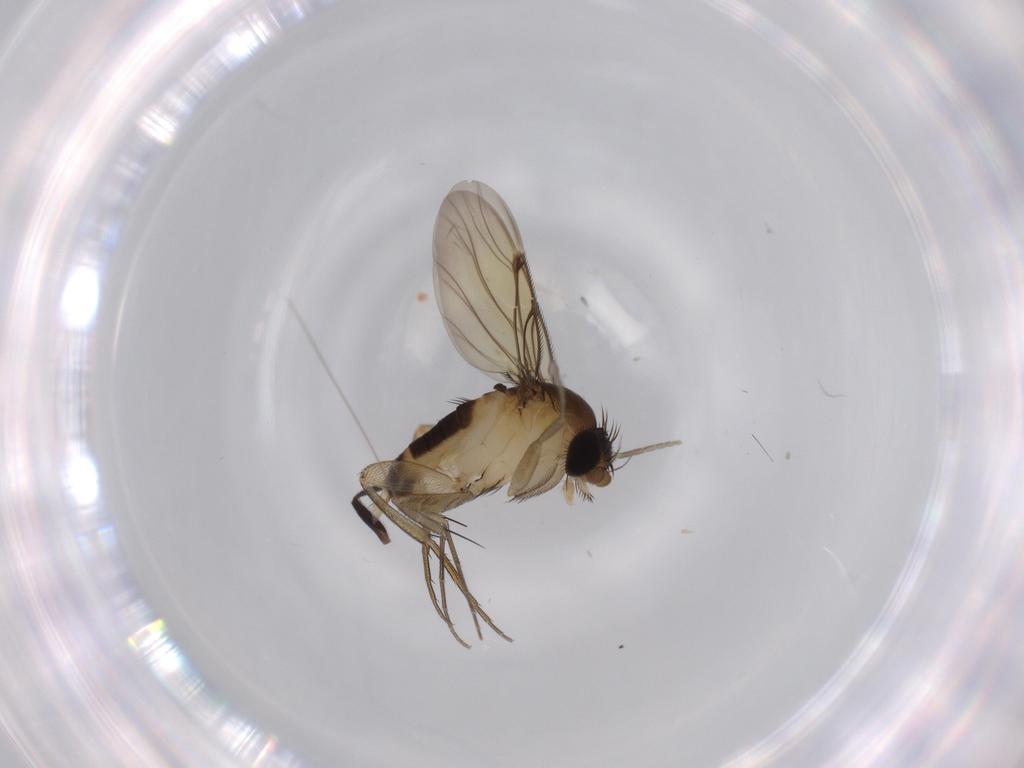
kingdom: Animalia
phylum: Arthropoda
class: Insecta
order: Diptera
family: Milichiidae
